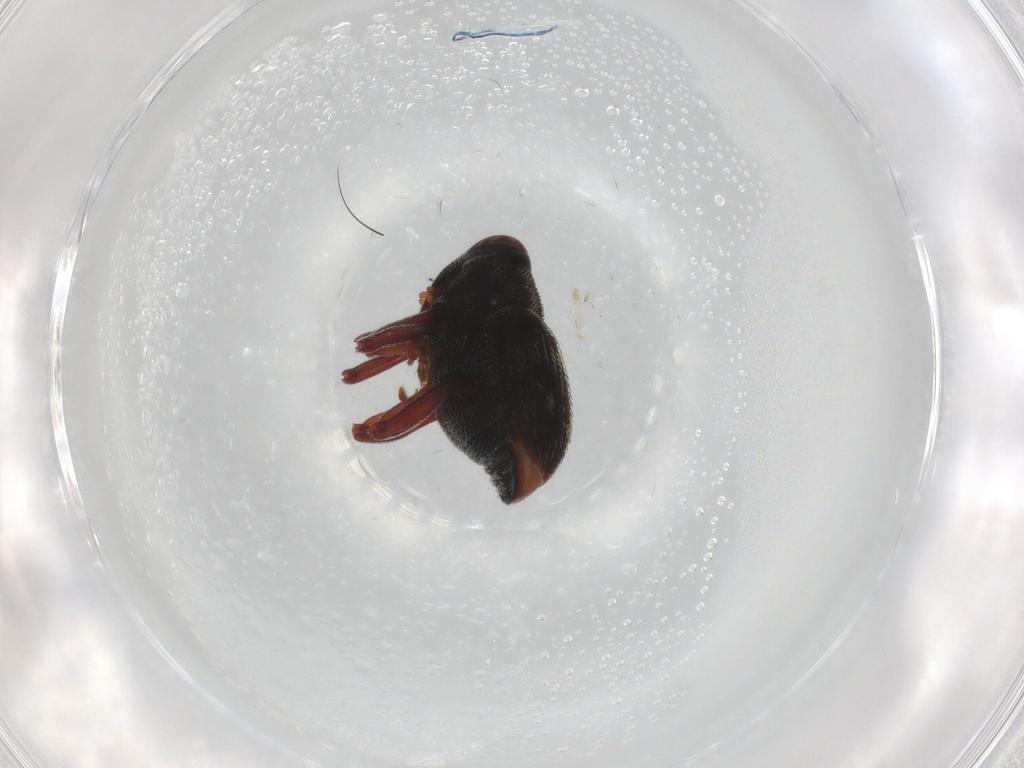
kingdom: Animalia
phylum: Arthropoda
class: Insecta
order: Coleoptera
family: Curculionidae
